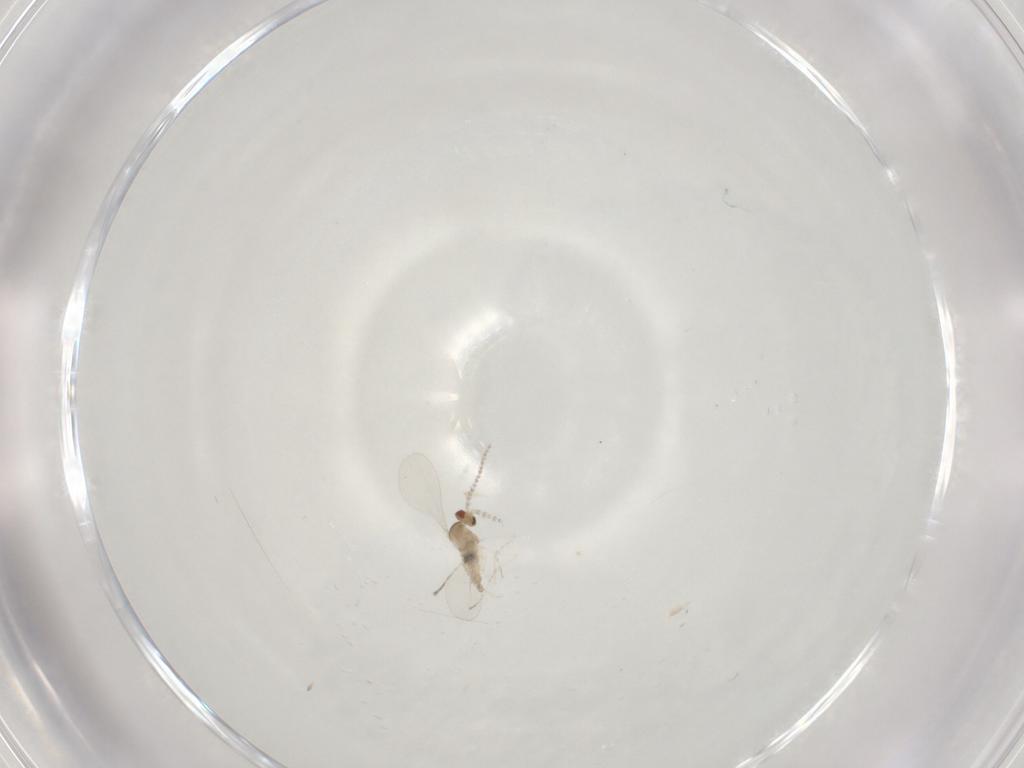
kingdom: Animalia
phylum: Arthropoda
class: Insecta
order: Diptera
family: Cecidomyiidae
